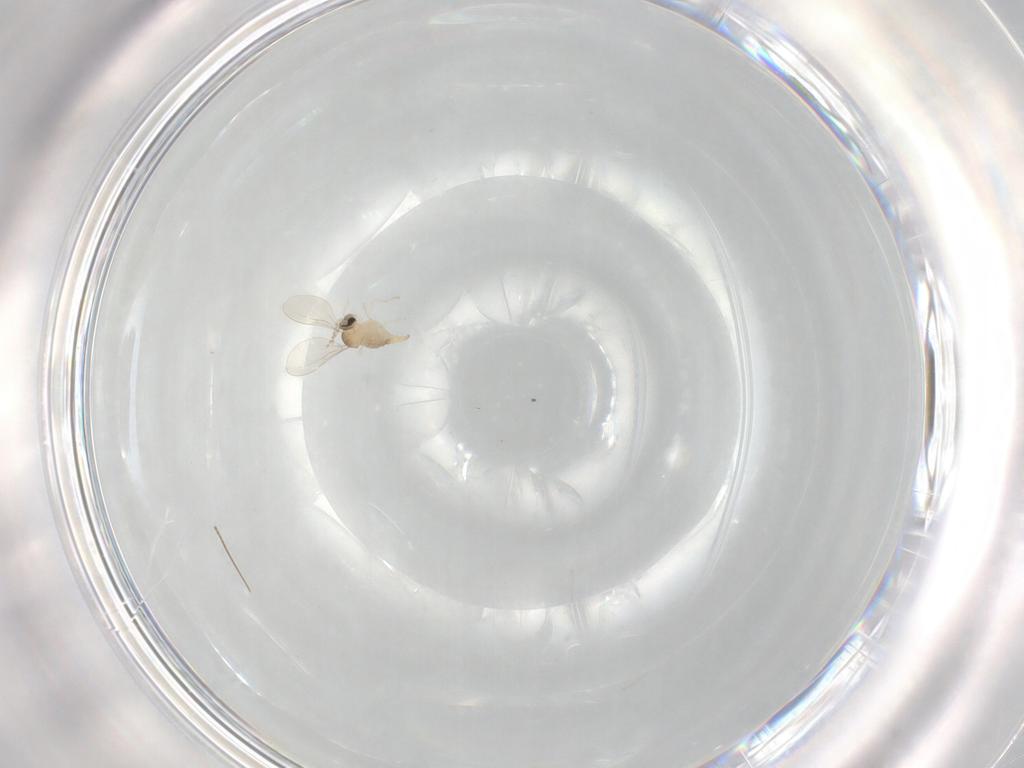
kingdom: Animalia
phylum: Arthropoda
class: Insecta
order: Diptera
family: Cecidomyiidae
